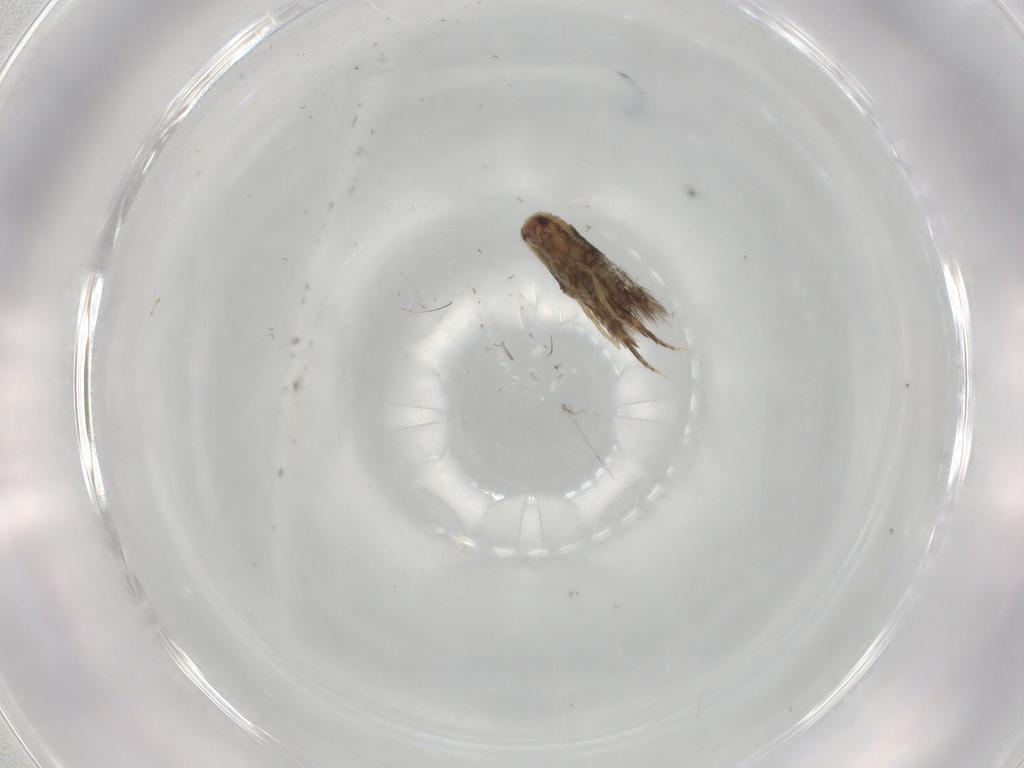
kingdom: Animalia
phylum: Arthropoda
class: Insecta
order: Lepidoptera
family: Nepticulidae
